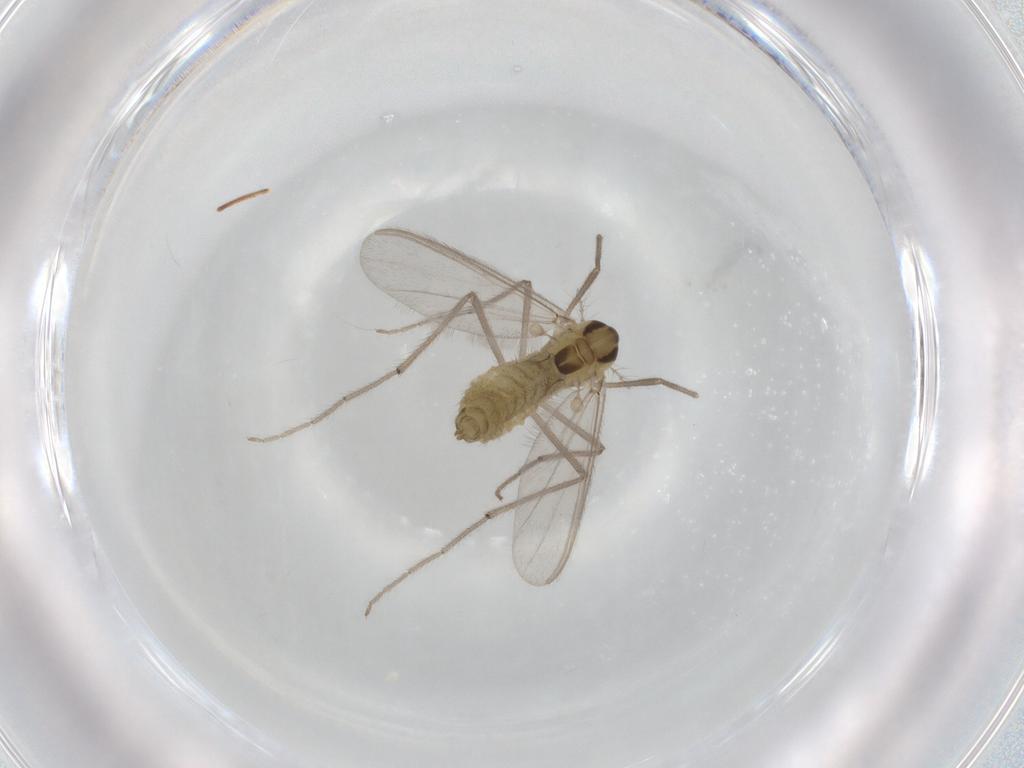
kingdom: Animalia
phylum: Arthropoda
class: Insecta
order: Diptera
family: Chironomidae
